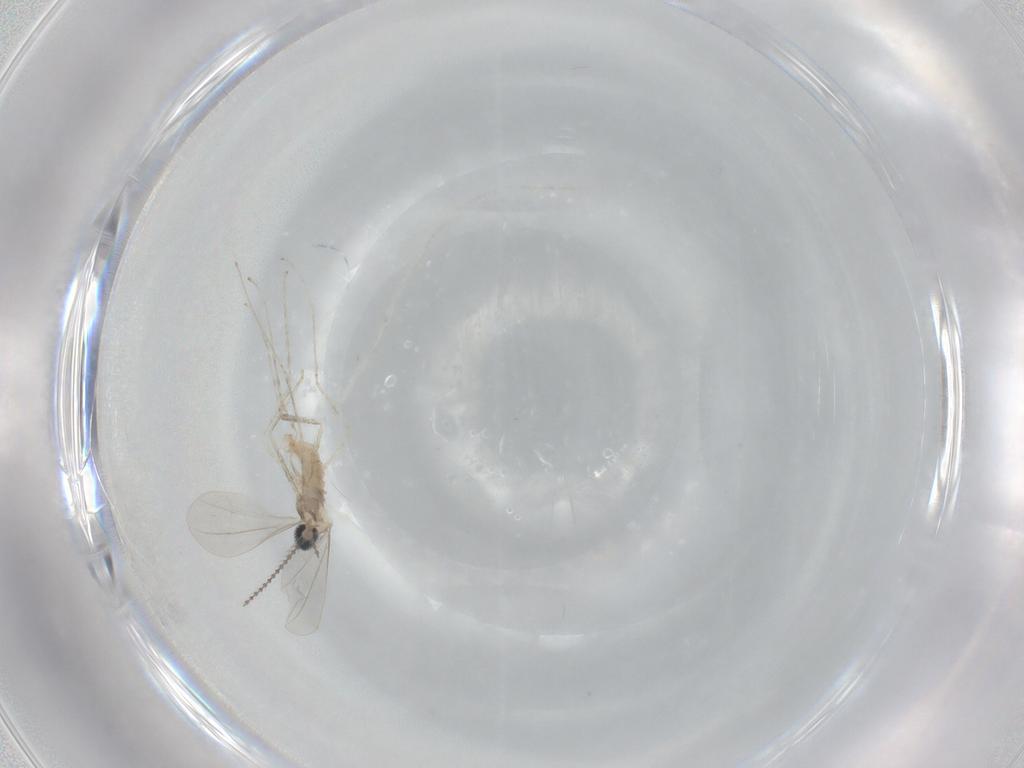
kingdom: Animalia
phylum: Arthropoda
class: Insecta
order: Diptera
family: Cecidomyiidae
